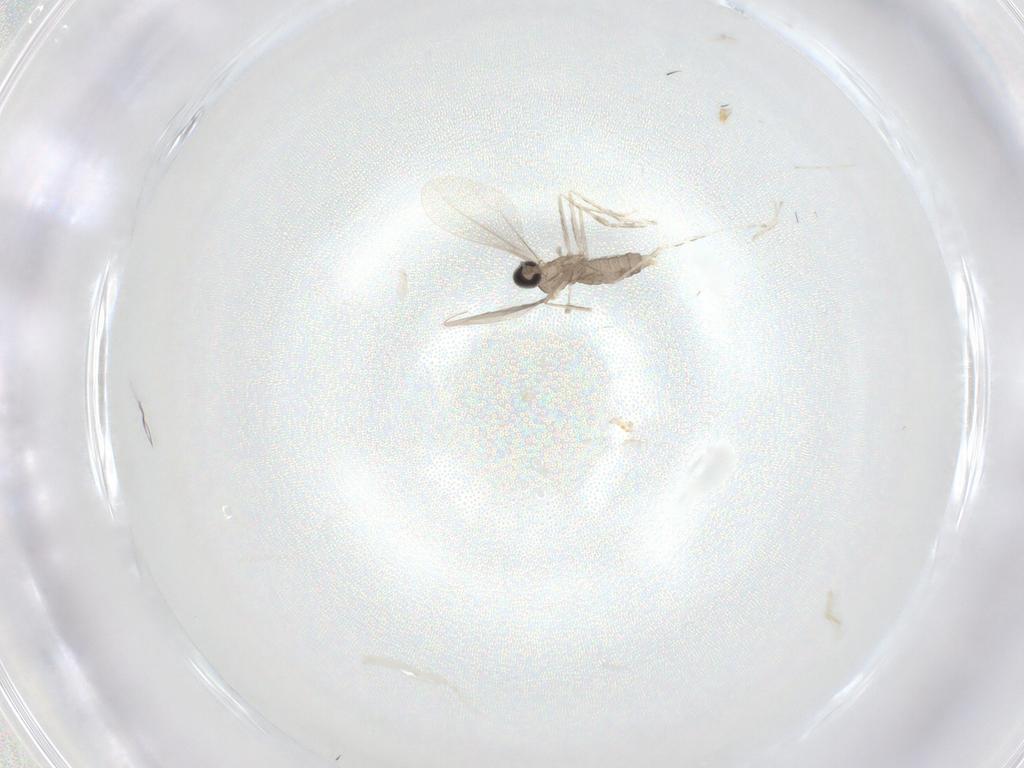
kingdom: Animalia
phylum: Arthropoda
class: Insecta
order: Diptera
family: Cecidomyiidae
